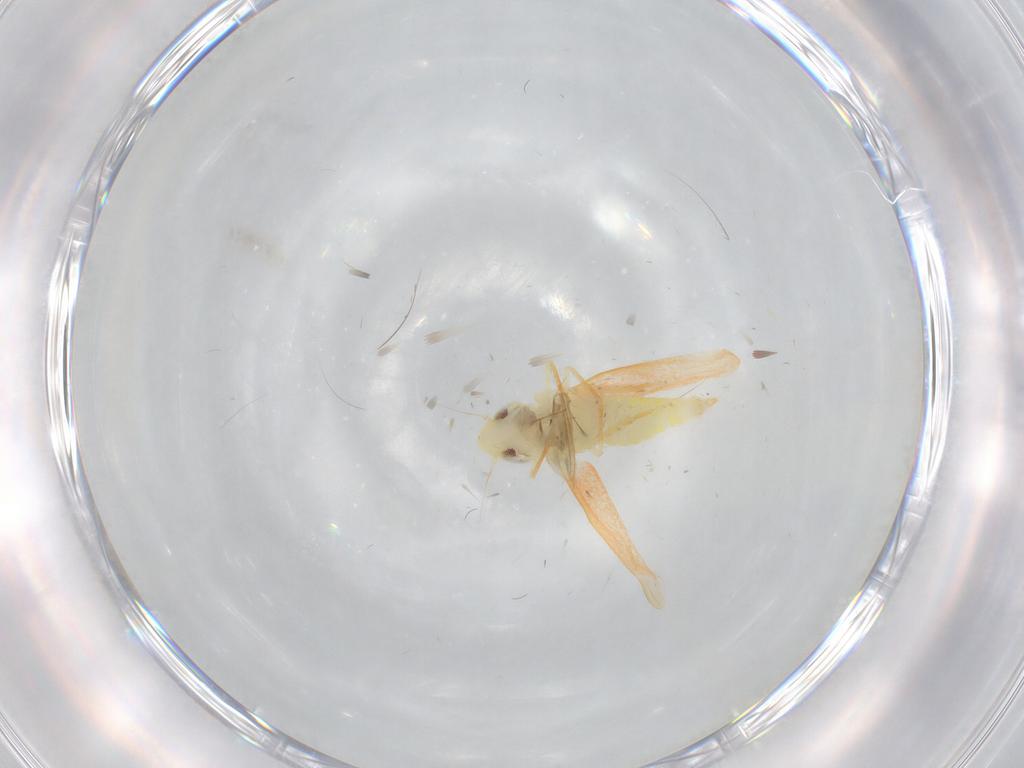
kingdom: Animalia
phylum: Arthropoda
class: Insecta
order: Hemiptera
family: Cicadellidae
